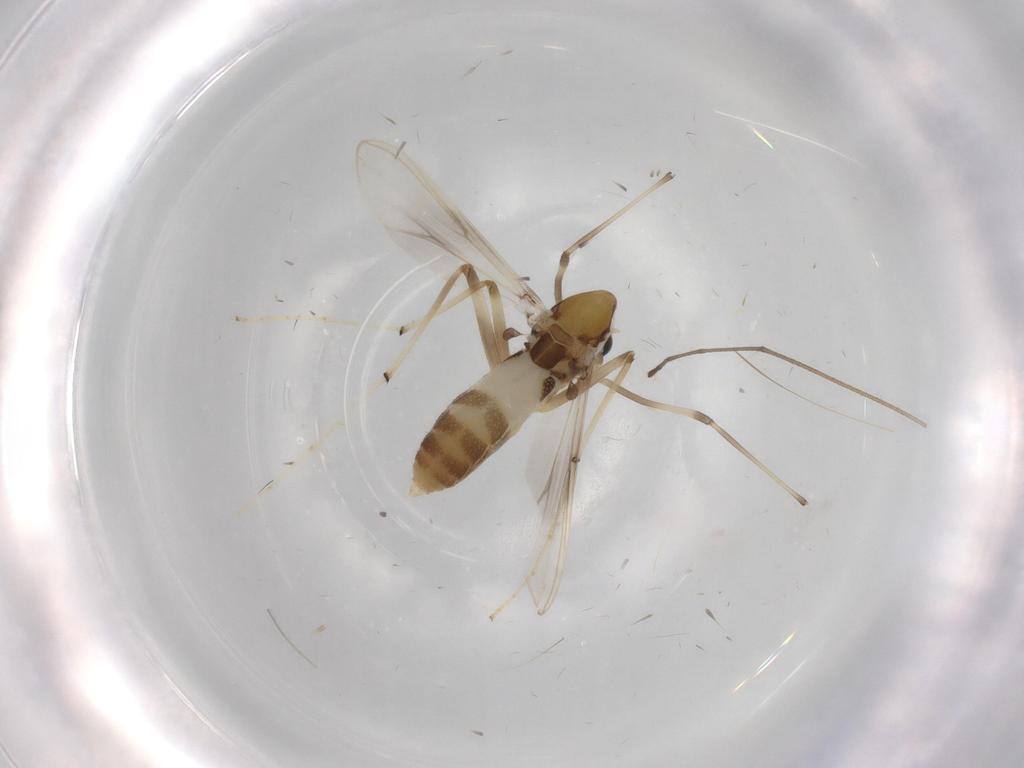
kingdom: Animalia
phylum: Arthropoda
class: Insecta
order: Diptera
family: Chironomidae
